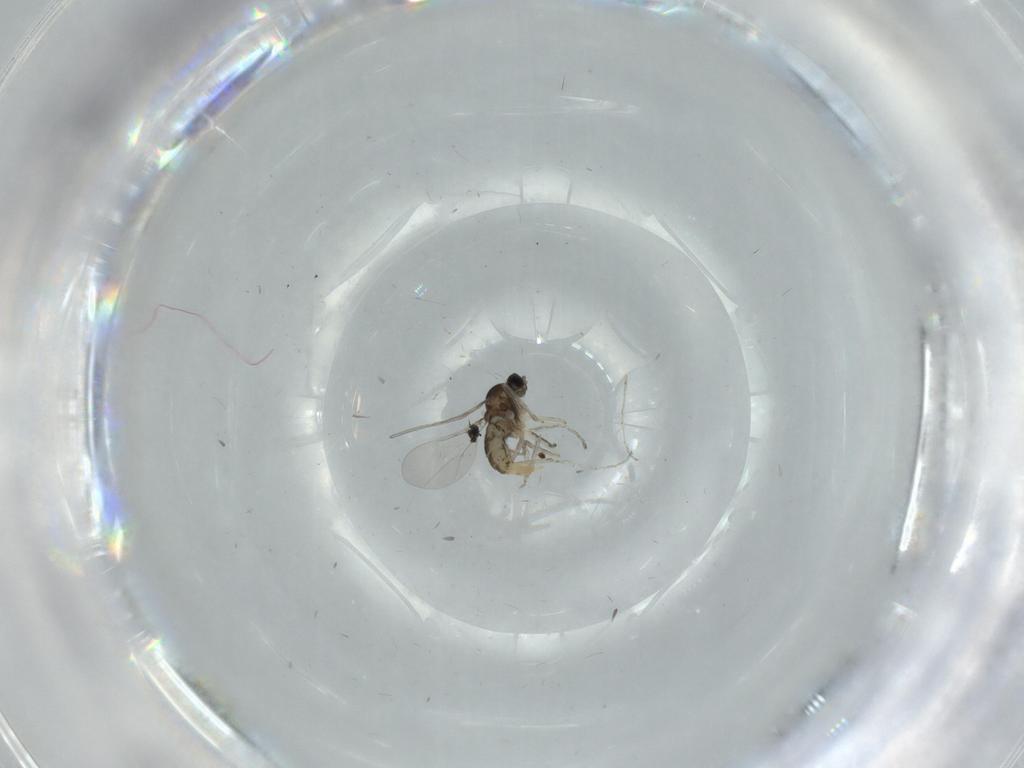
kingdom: Animalia
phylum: Arthropoda
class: Insecta
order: Diptera
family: Cecidomyiidae
